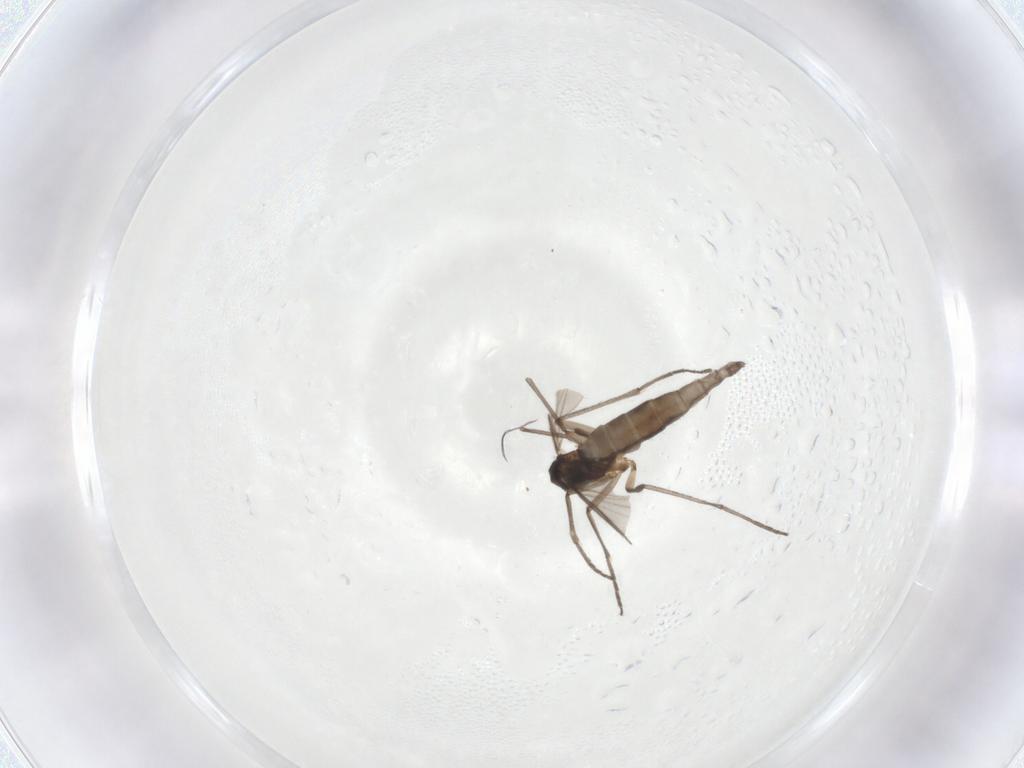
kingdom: Animalia
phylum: Arthropoda
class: Insecta
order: Diptera
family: Sciaridae
